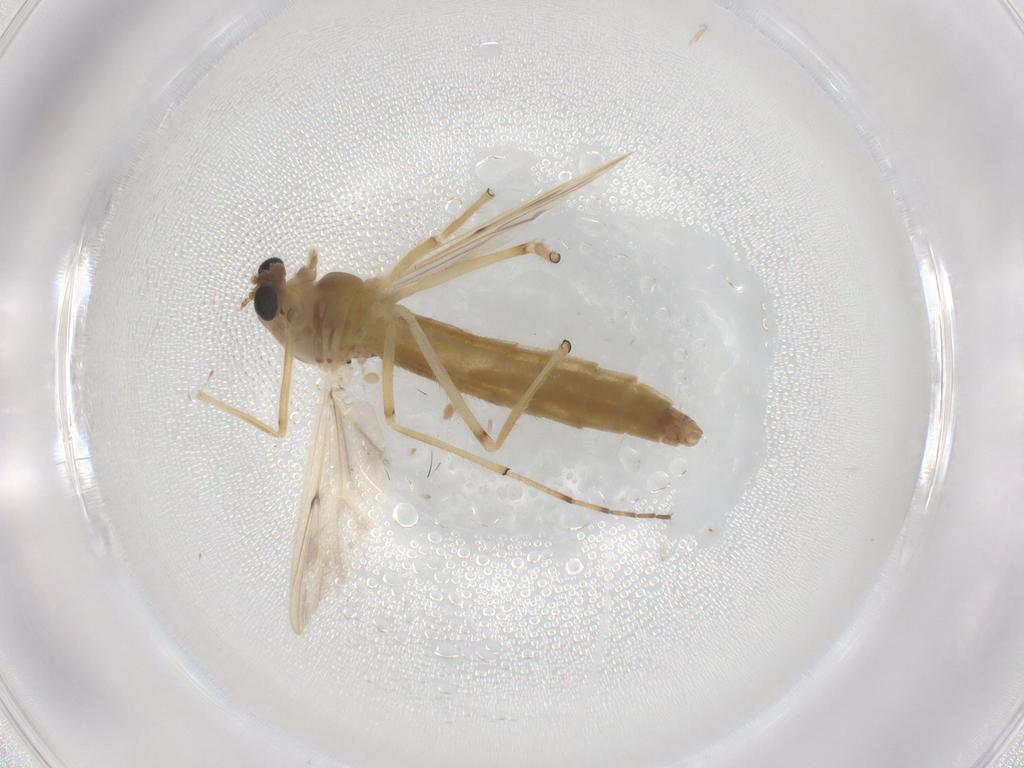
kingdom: Animalia
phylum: Arthropoda
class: Insecta
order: Diptera
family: Chironomidae
